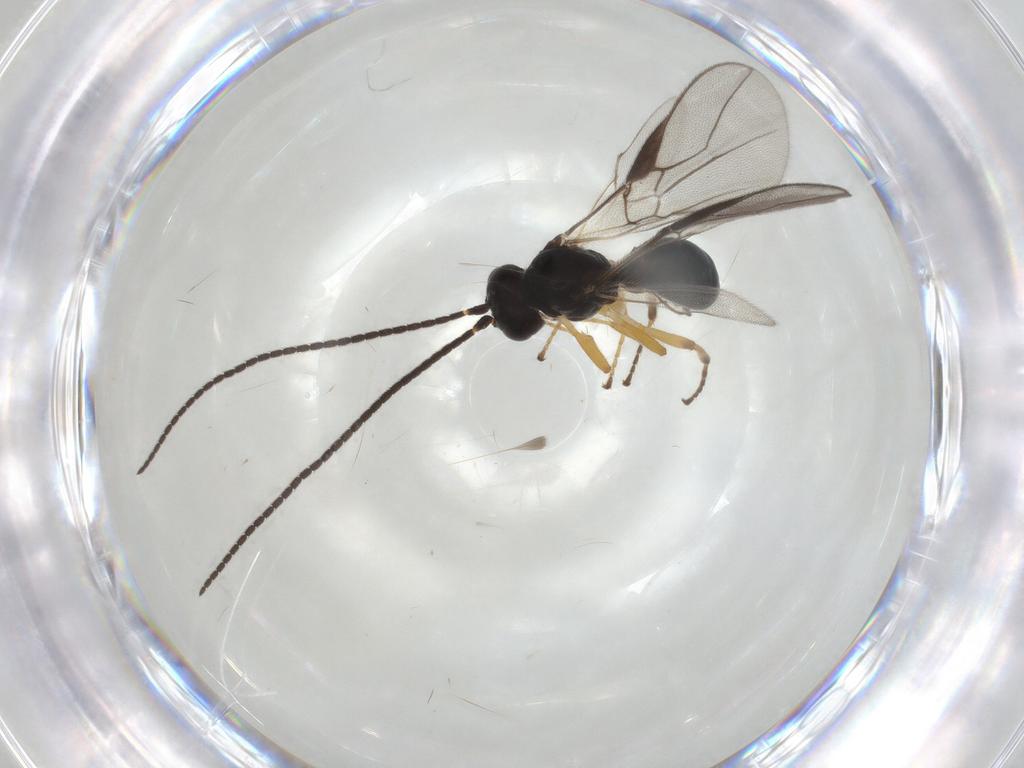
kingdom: Animalia
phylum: Arthropoda
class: Insecta
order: Hymenoptera
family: Braconidae
